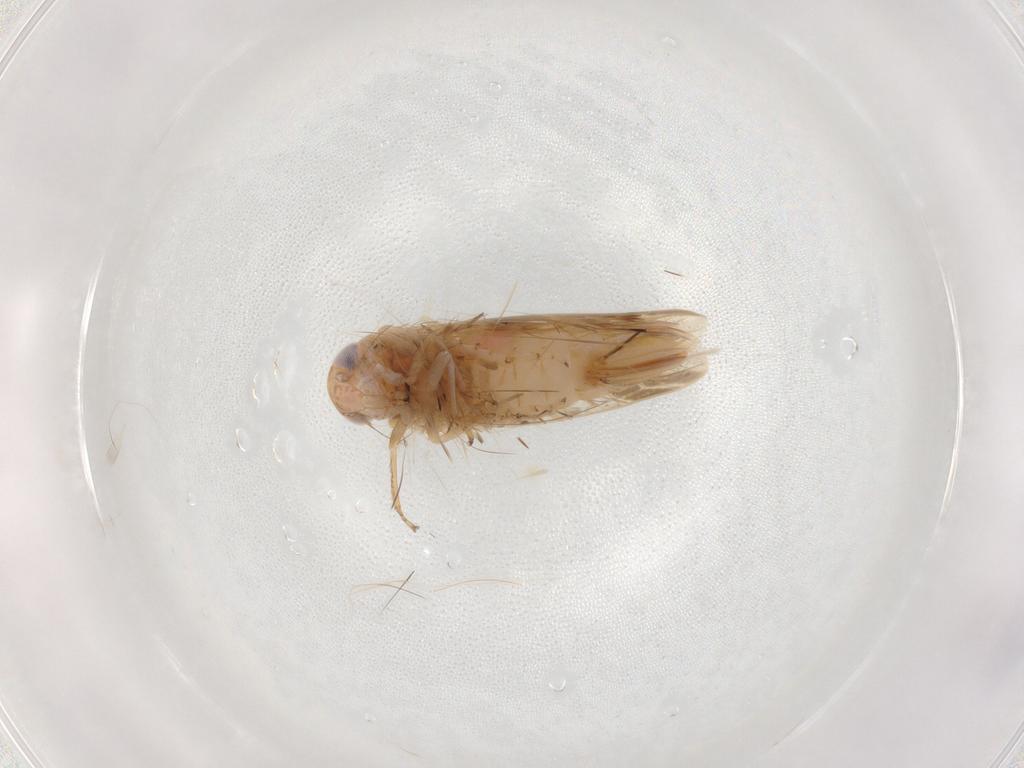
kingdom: Animalia
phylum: Arthropoda
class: Insecta
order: Hemiptera
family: Cicadellidae
